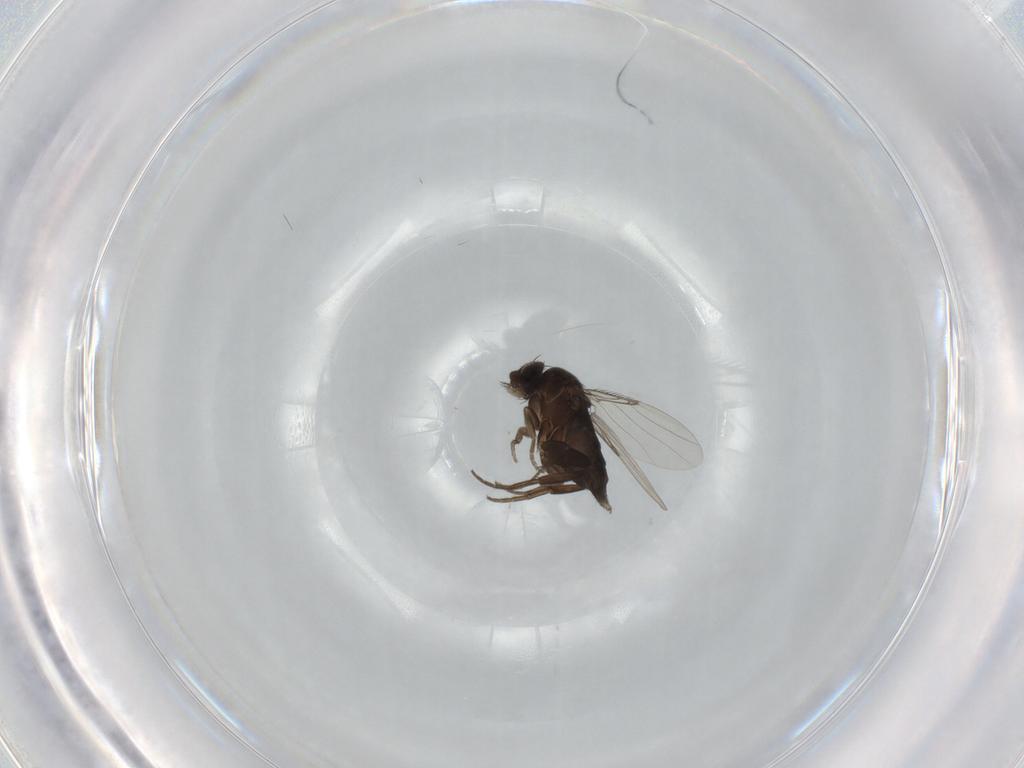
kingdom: Animalia
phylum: Arthropoda
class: Insecta
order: Diptera
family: Phoridae
